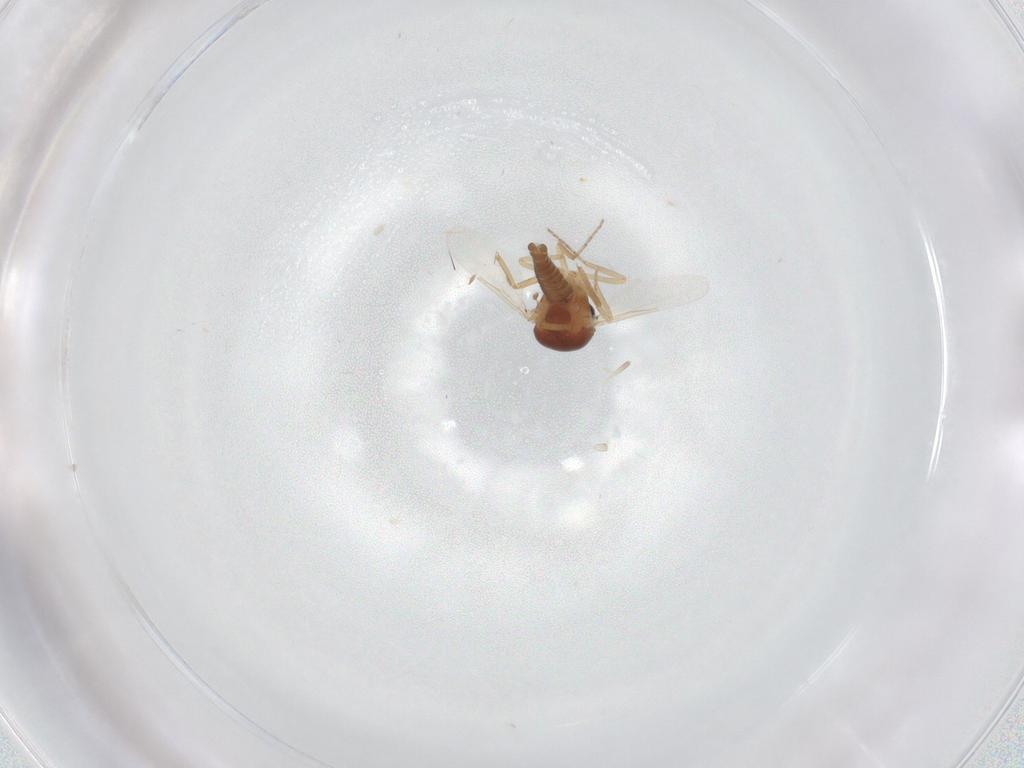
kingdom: Animalia
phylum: Arthropoda
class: Insecta
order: Diptera
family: Ceratopogonidae
